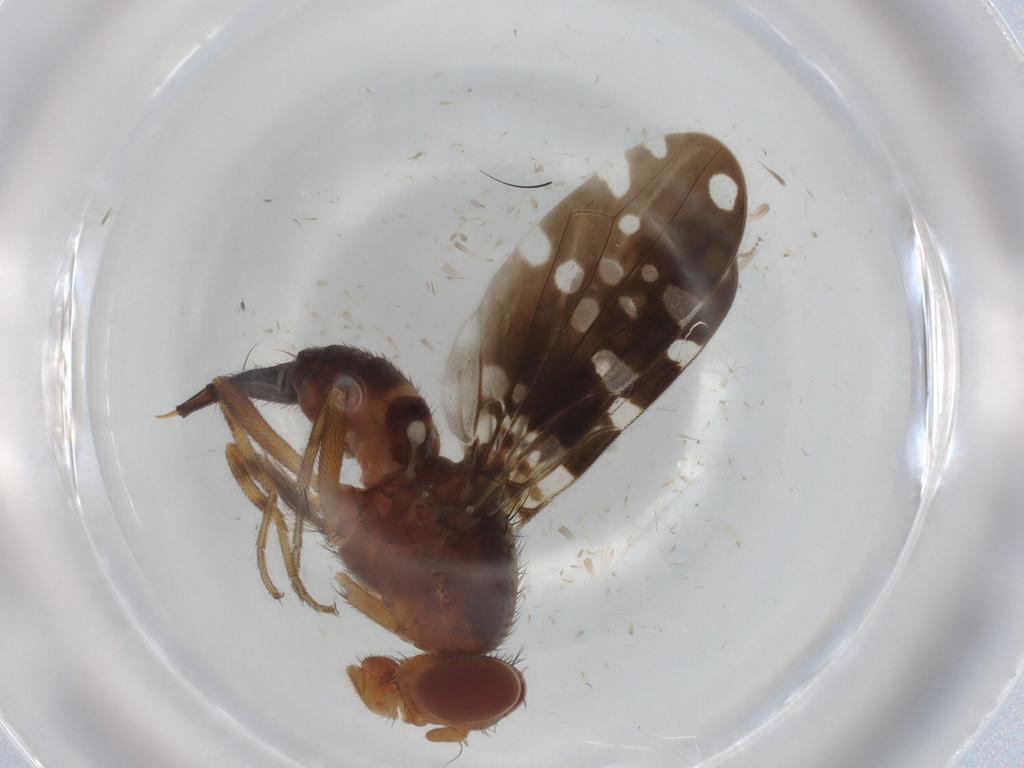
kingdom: Animalia
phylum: Arthropoda
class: Insecta
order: Diptera
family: Ulidiidae
